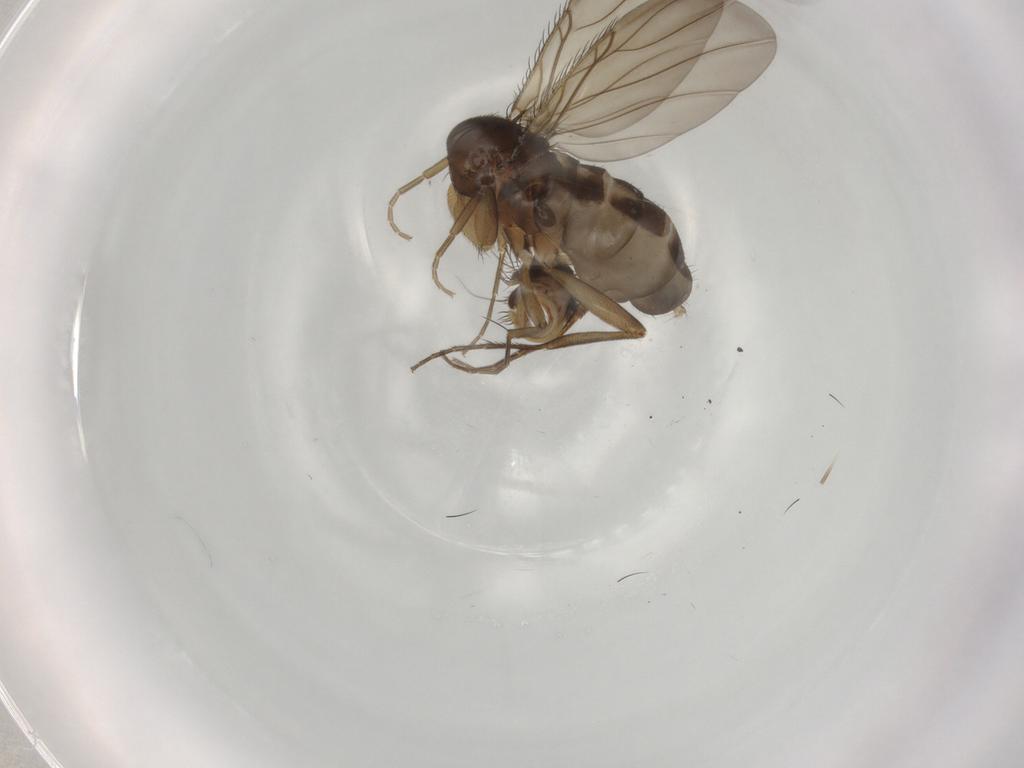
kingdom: Animalia
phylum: Arthropoda
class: Insecta
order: Diptera
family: Phoridae
